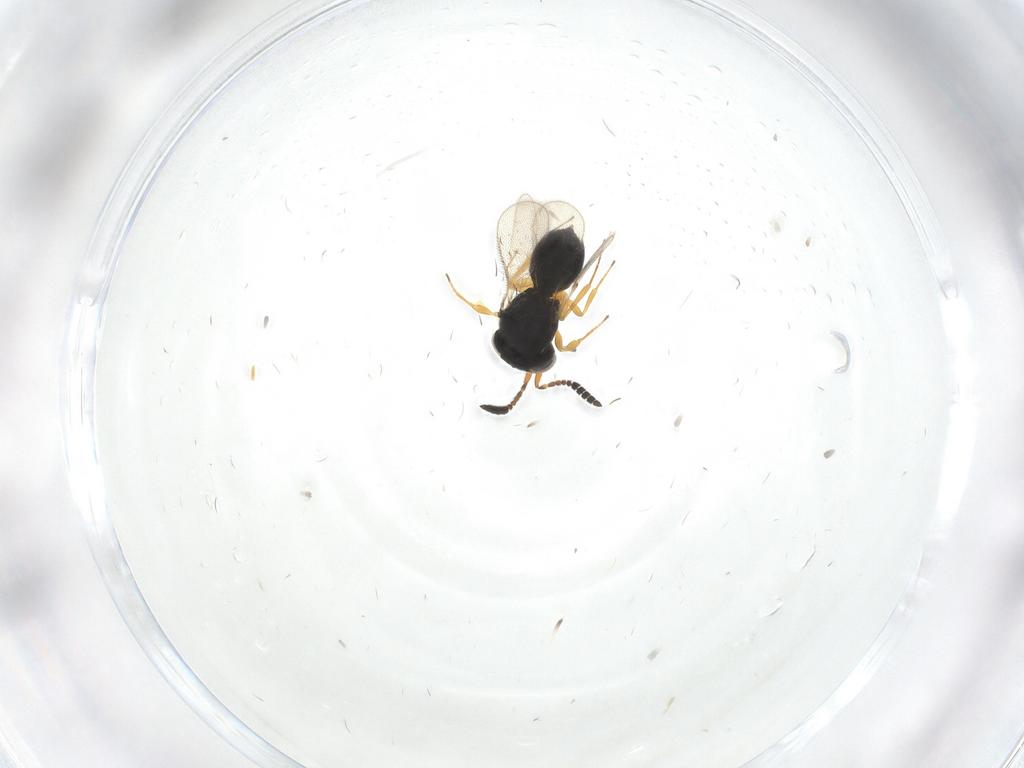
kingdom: Animalia
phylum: Arthropoda
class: Insecta
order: Hymenoptera
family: Scelionidae
